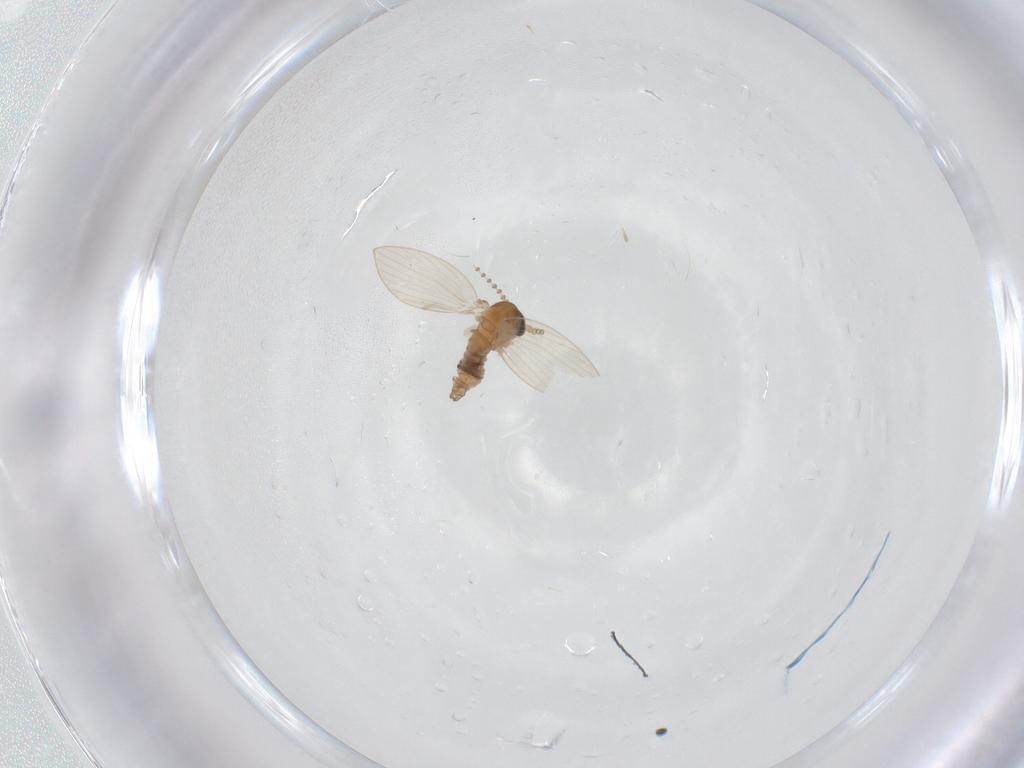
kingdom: Animalia
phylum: Arthropoda
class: Insecta
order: Diptera
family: Psychodidae
